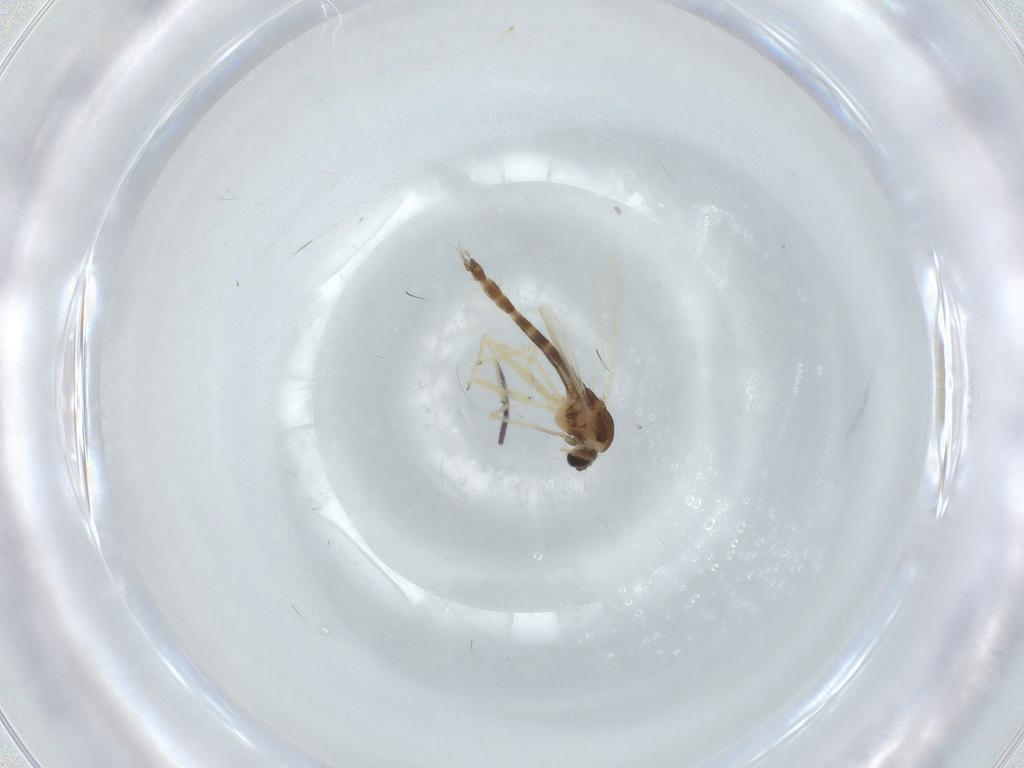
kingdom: Animalia
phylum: Arthropoda
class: Insecta
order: Diptera
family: Chironomidae
